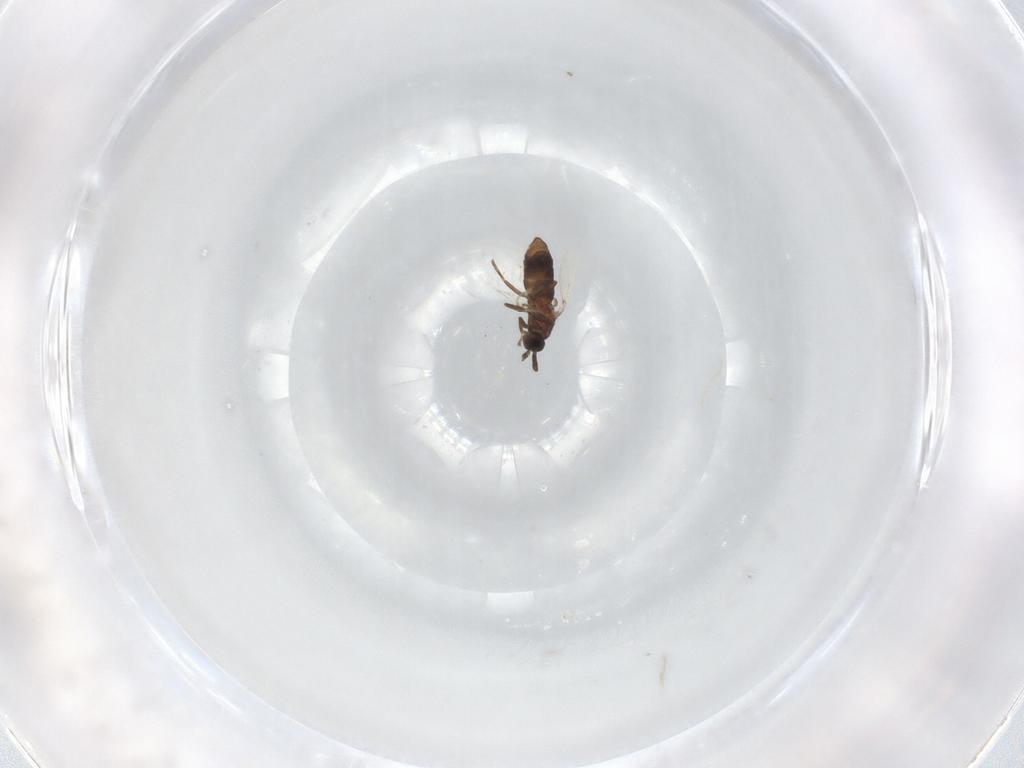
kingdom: Animalia
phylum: Arthropoda
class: Insecta
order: Diptera
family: Scatopsidae
